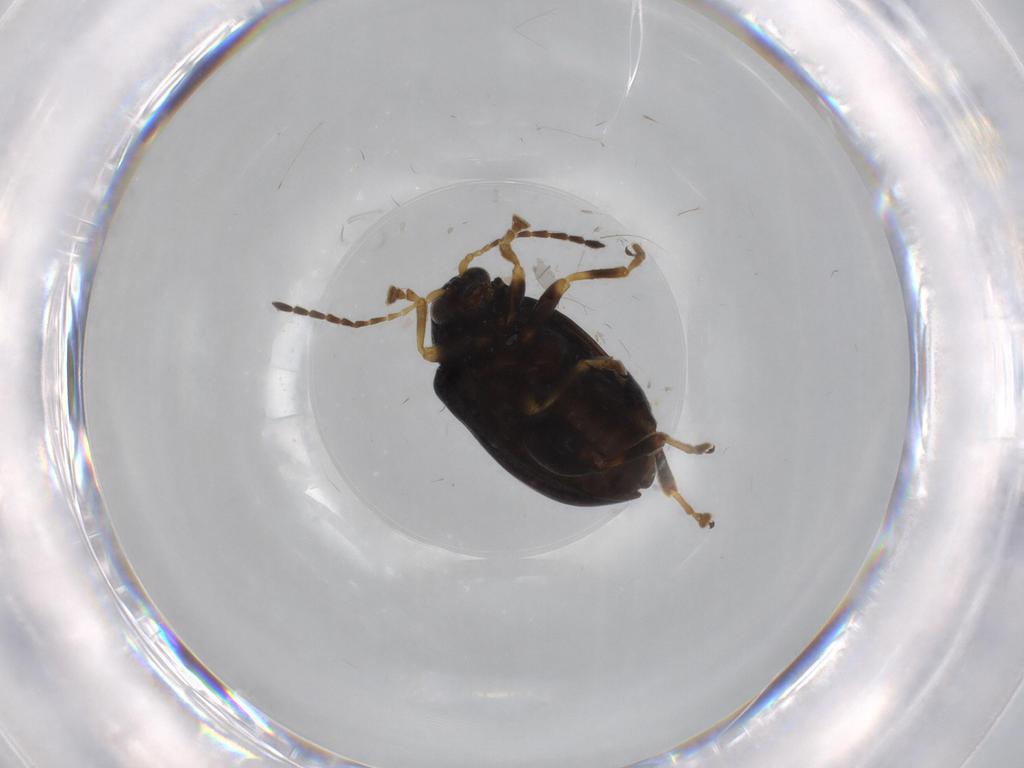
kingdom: Animalia
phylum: Arthropoda
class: Insecta
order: Coleoptera
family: Chrysomelidae
